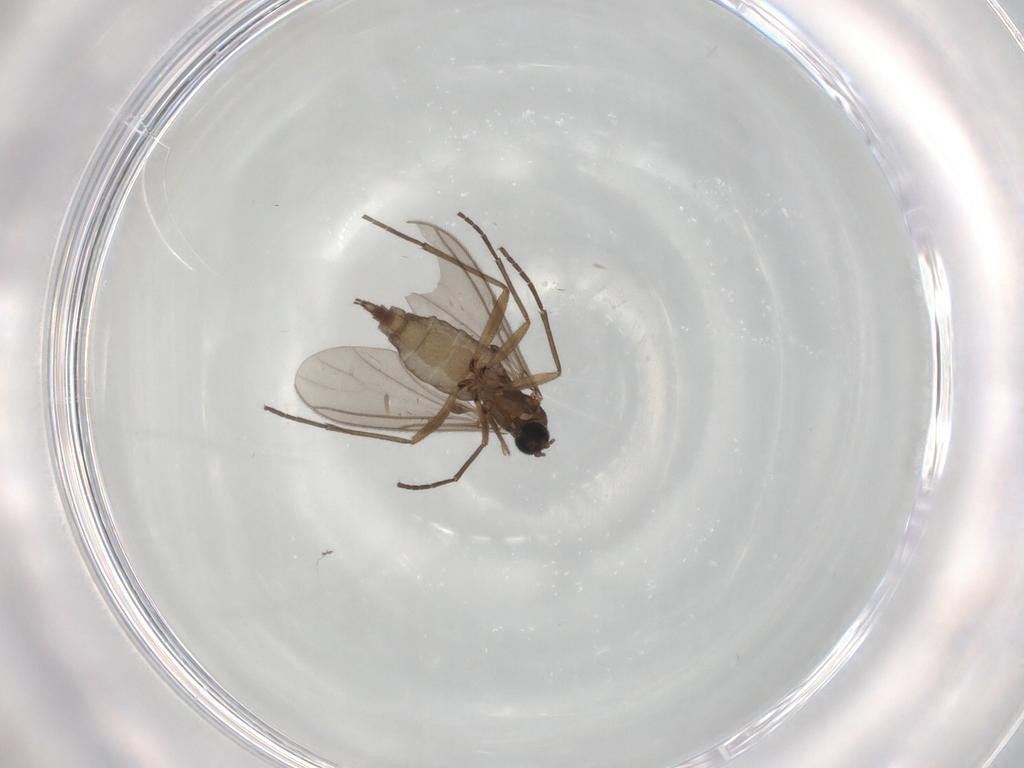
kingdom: Animalia
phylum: Arthropoda
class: Insecta
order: Diptera
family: Sciaridae
